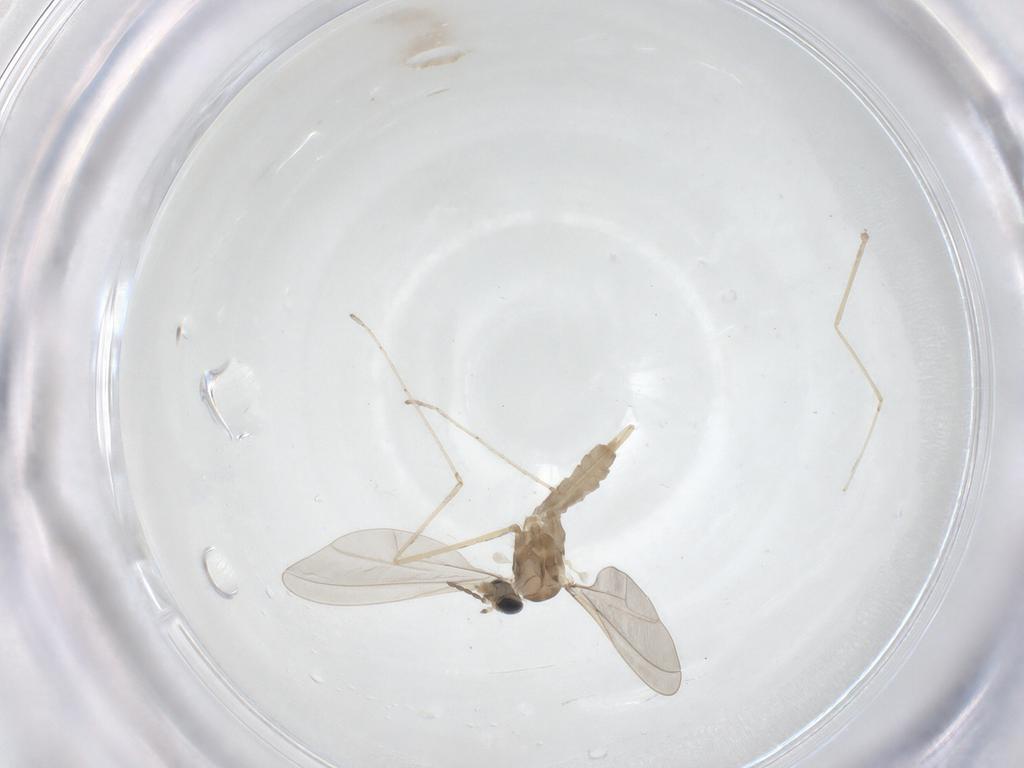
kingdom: Animalia
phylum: Arthropoda
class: Insecta
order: Diptera
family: Cecidomyiidae
